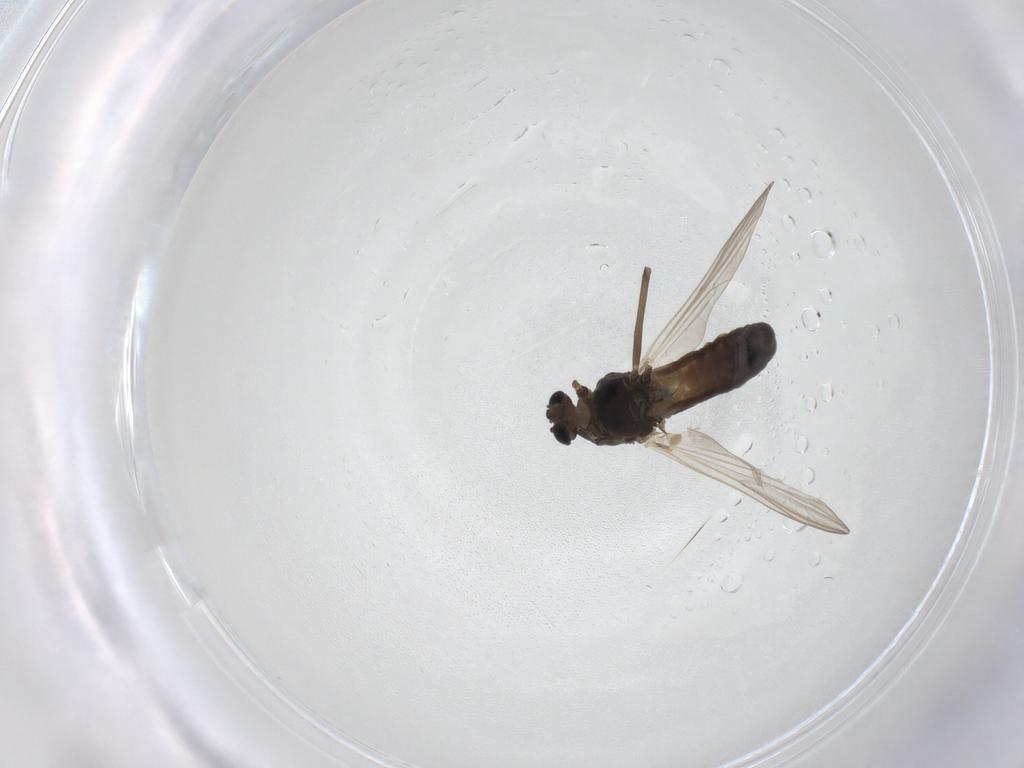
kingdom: Animalia
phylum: Arthropoda
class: Insecta
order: Diptera
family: Chironomidae
